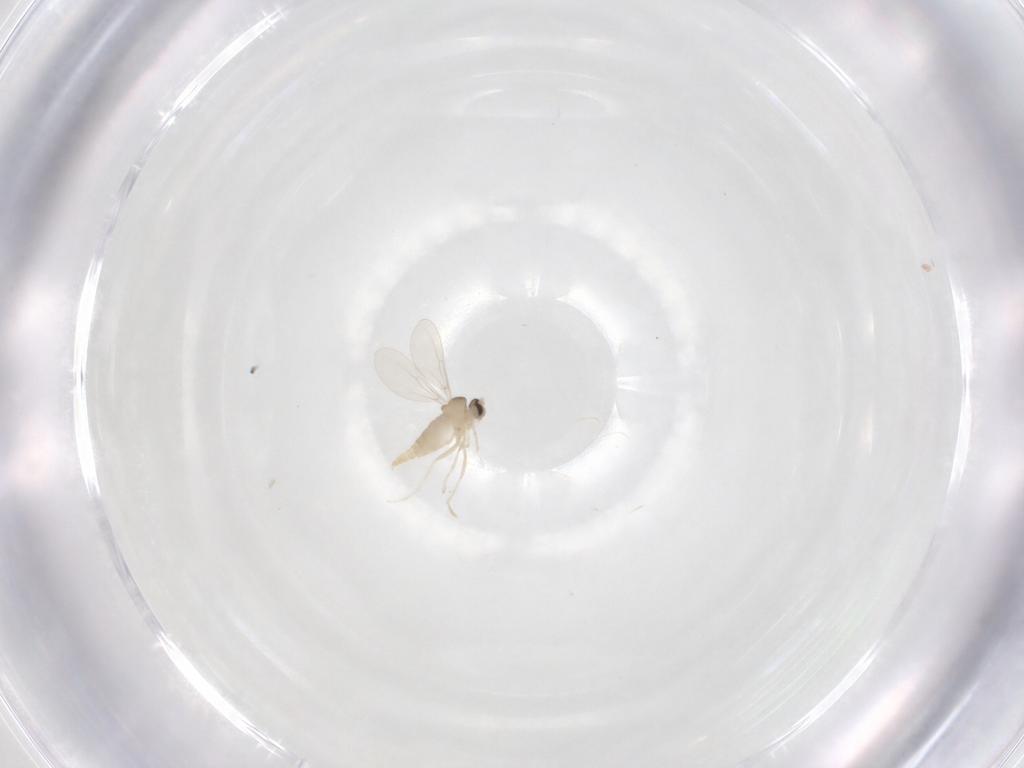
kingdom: Animalia
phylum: Arthropoda
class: Insecta
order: Diptera
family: Cecidomyiidae
